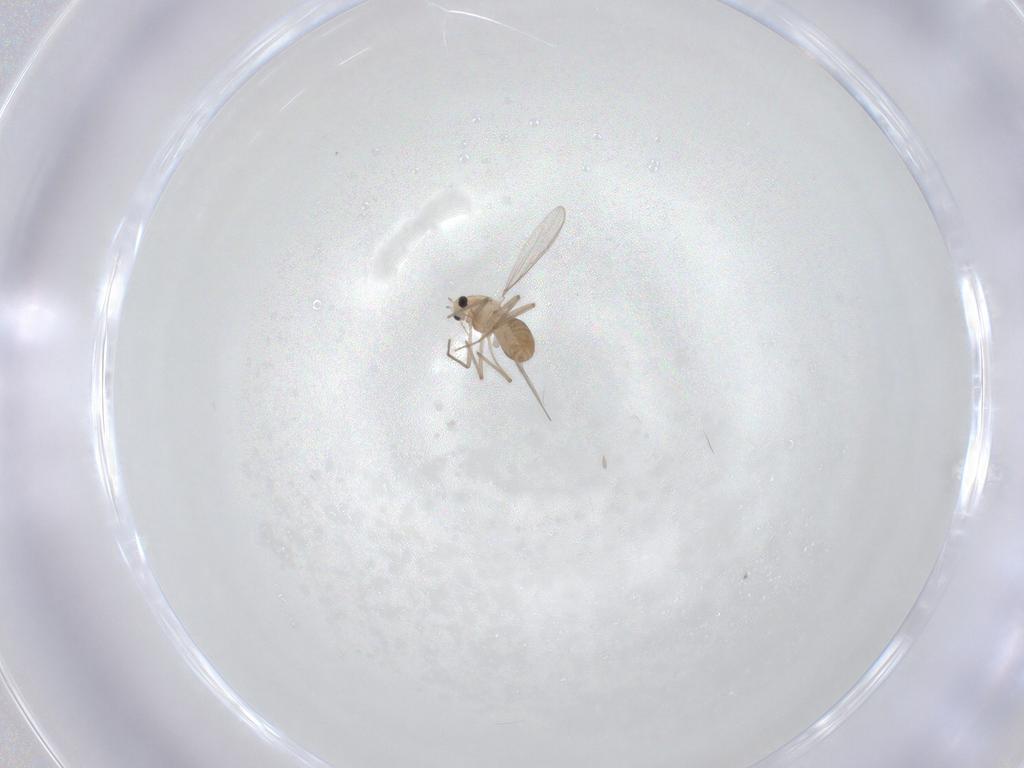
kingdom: Animalia
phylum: Arthropoda
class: Insecta
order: Diptera
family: Chironomidae
